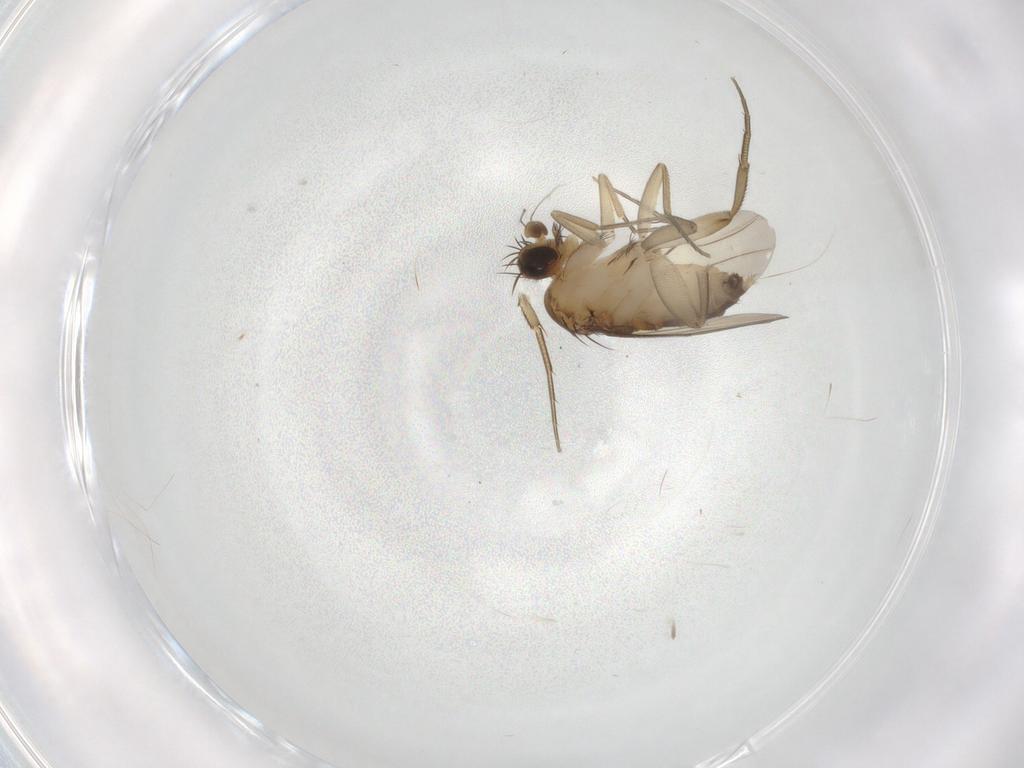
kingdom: Animalia
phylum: Arthropoda
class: Insecta
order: Diptera
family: Phoridae
